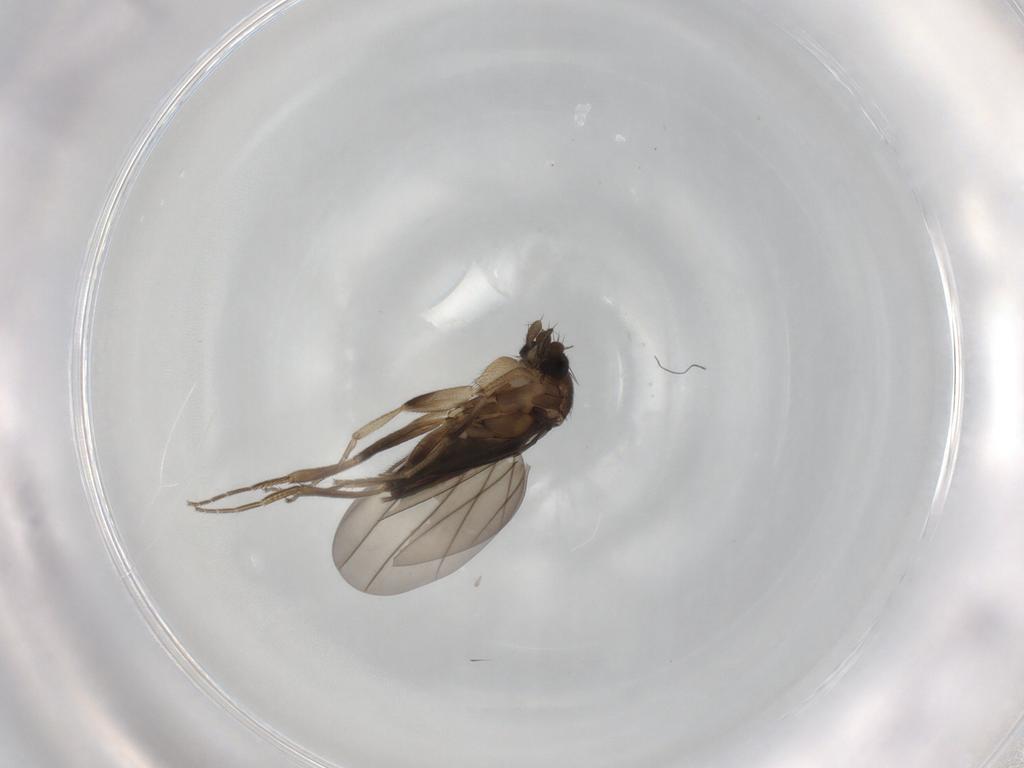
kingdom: Animalia
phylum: Arthropoda
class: Insecta
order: Diptera
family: Phoridae
